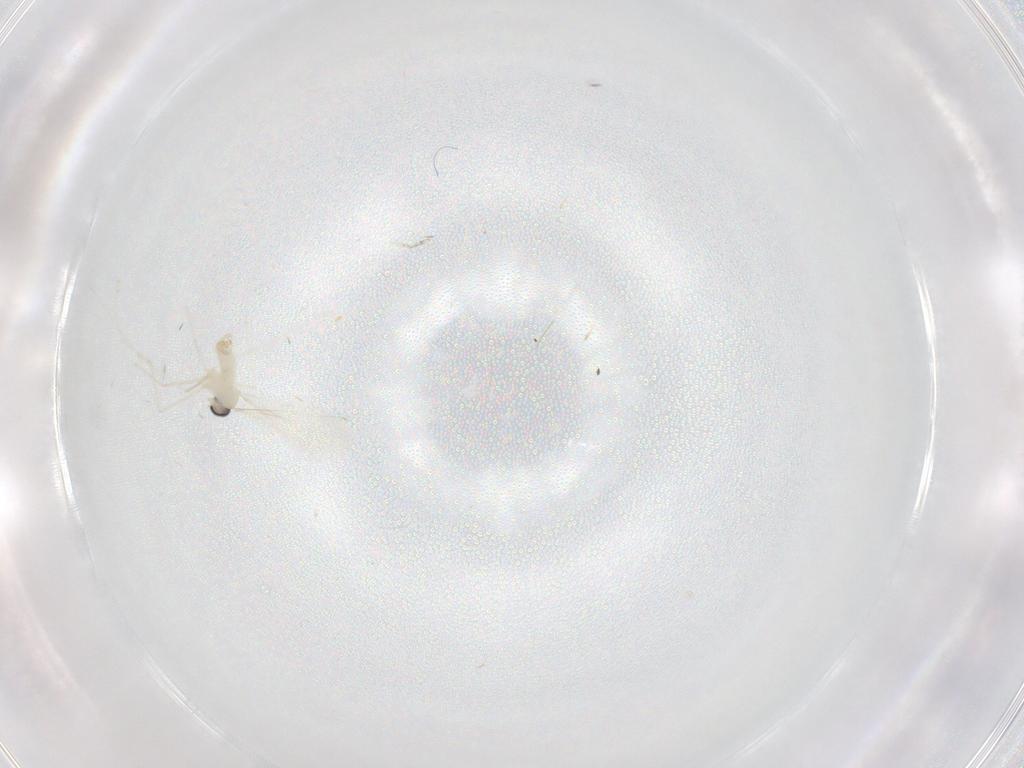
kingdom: Animalia
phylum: Arthropoda
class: Insecta
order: Diptera
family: Cecidomyiidae
